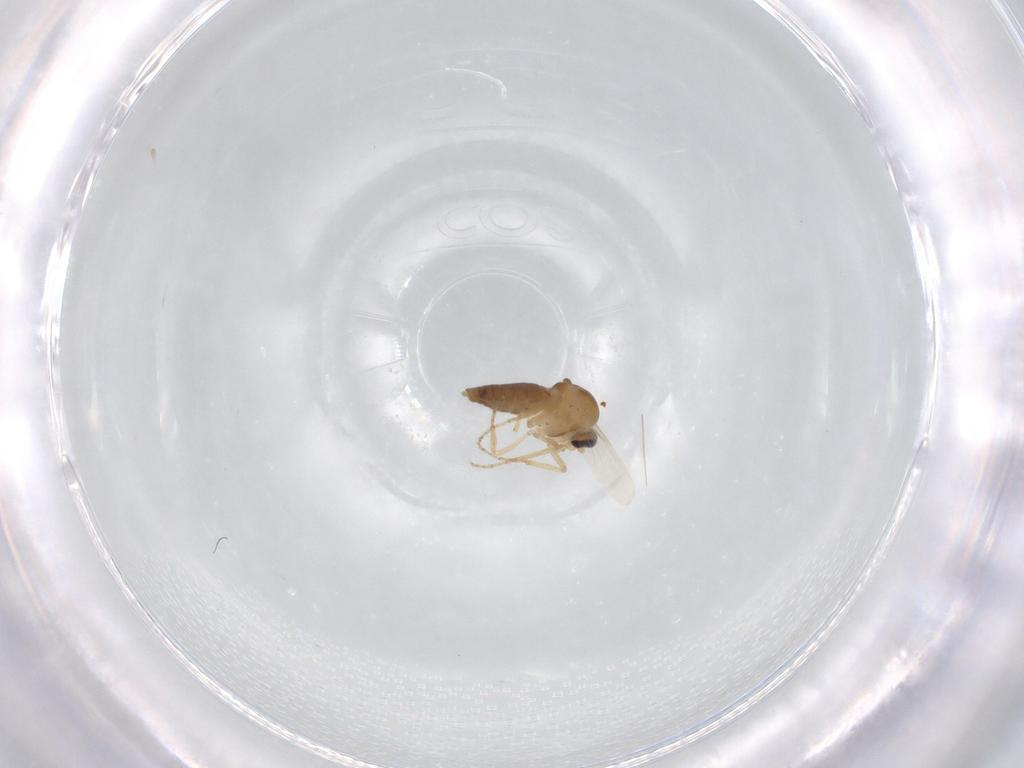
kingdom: Animalia
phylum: Arthropoda
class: Insecta
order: Diptera
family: Ceratopogonidae
